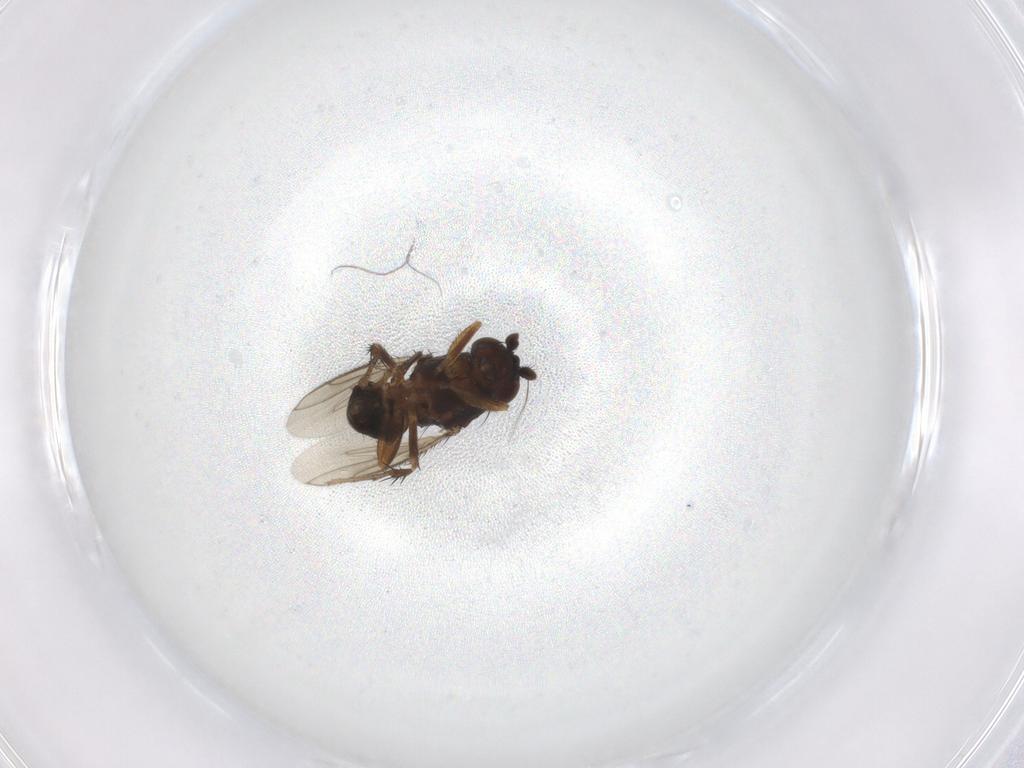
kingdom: Animalia
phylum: Arthropoda
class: Insecta
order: Diptera
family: Sphaeroceridae
